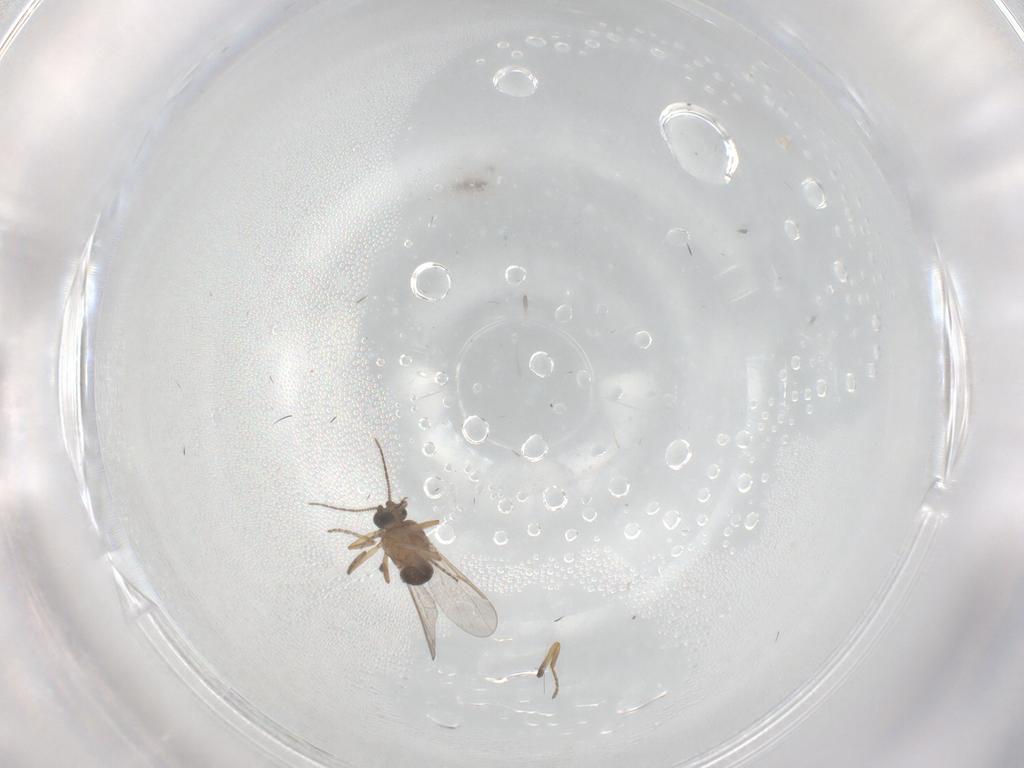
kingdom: Animalia
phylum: Arthropoda
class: Insecta
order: Diptera
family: Ceratopogonidae
